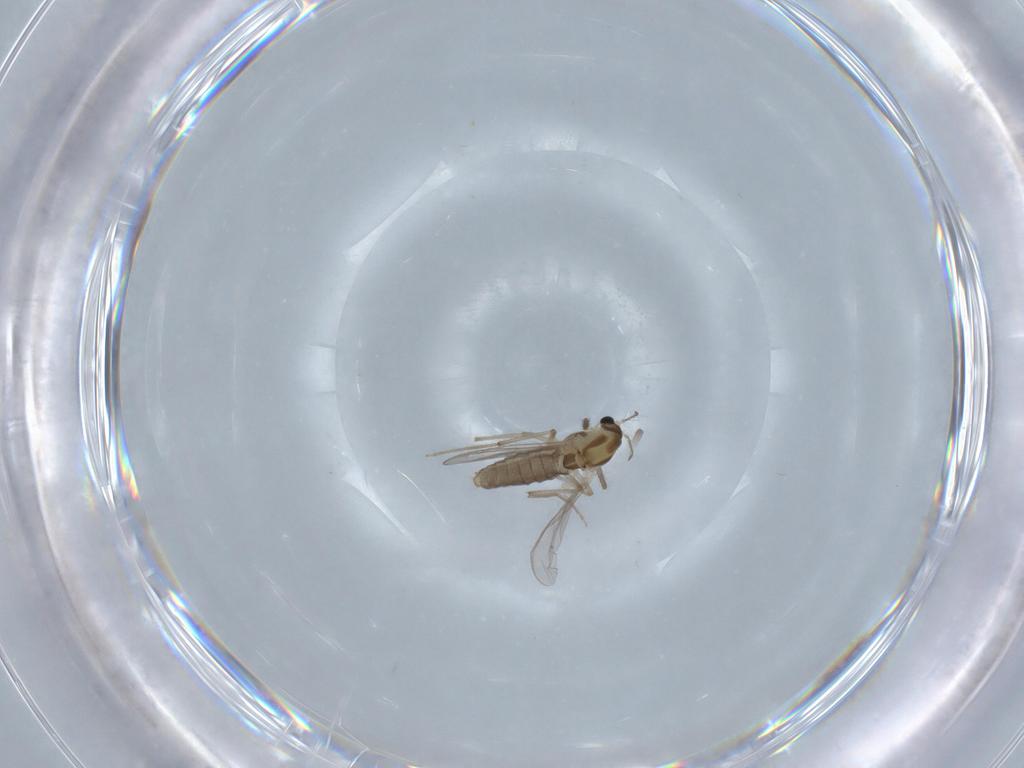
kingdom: Animalia
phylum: Arthropoda
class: Insecta
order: Diptera
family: Chironomidae
